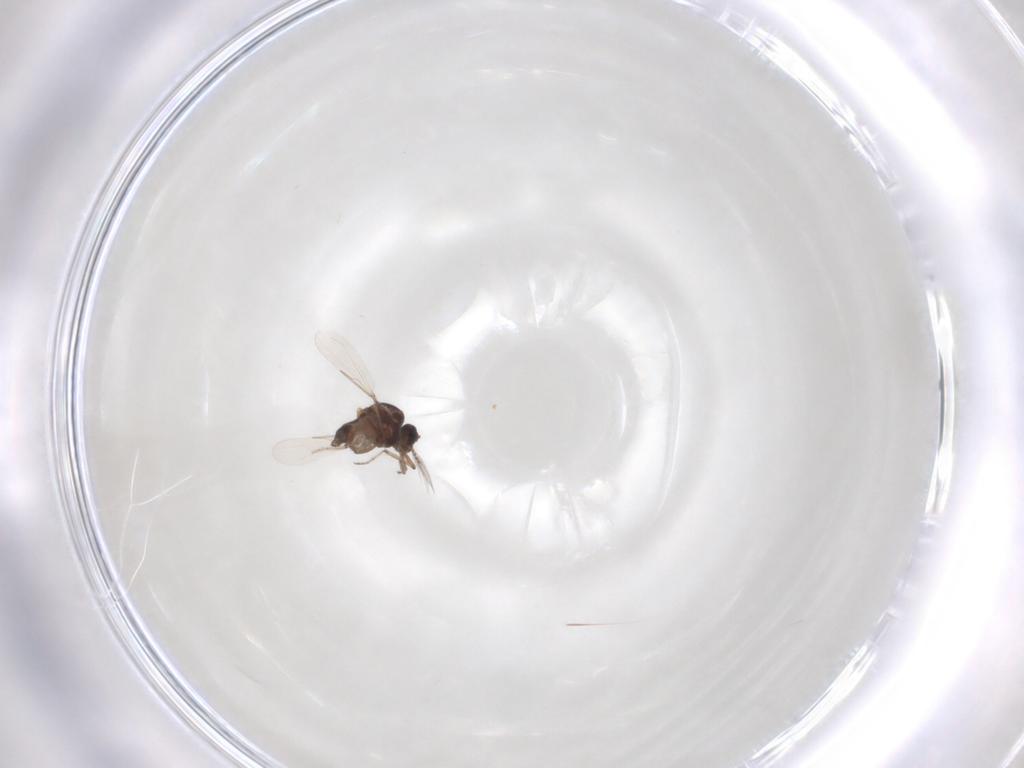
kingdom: Animalia
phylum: Arthropoda
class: Insecta
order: Diptera
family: Ceratopogonidae
